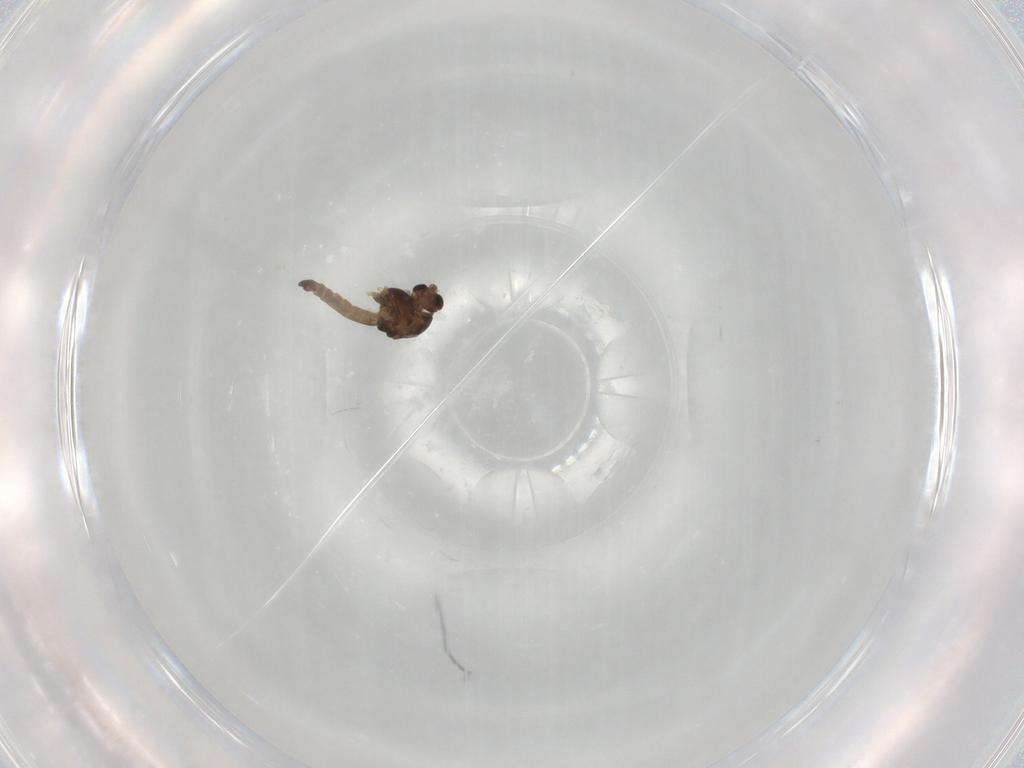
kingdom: Animalia
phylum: Arthropoda
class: Insecta
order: Diptera
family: Chironomidae
